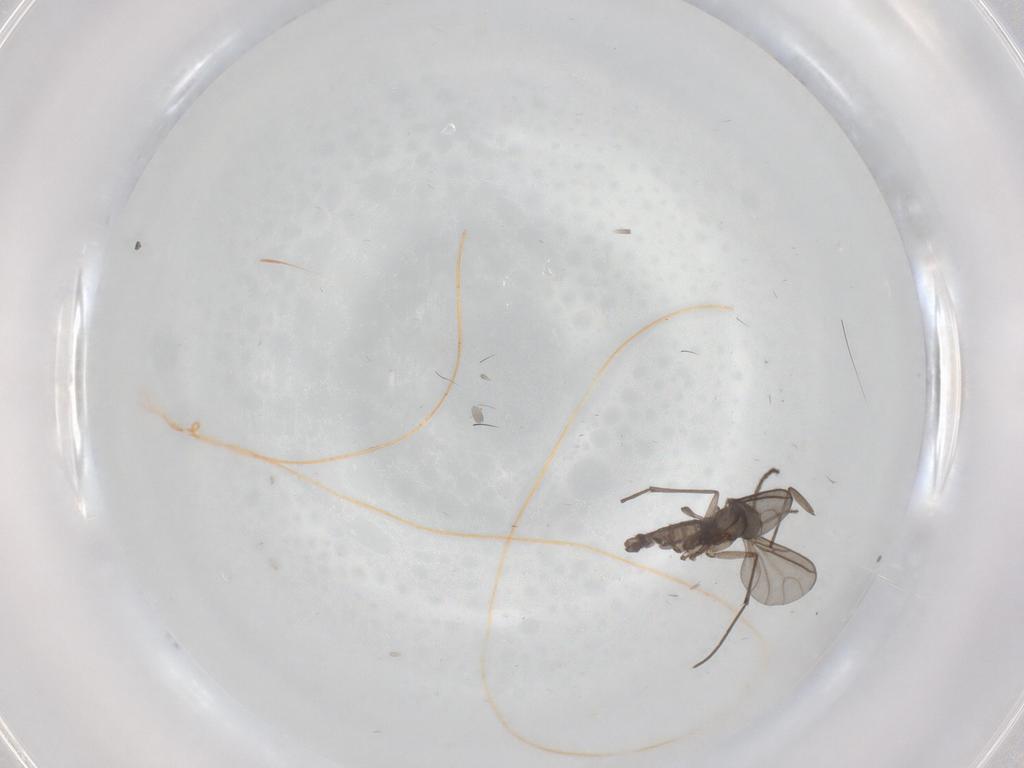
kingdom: Animalia
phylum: Arthropoda
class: Insecta
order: Diptera
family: Sciaridae
